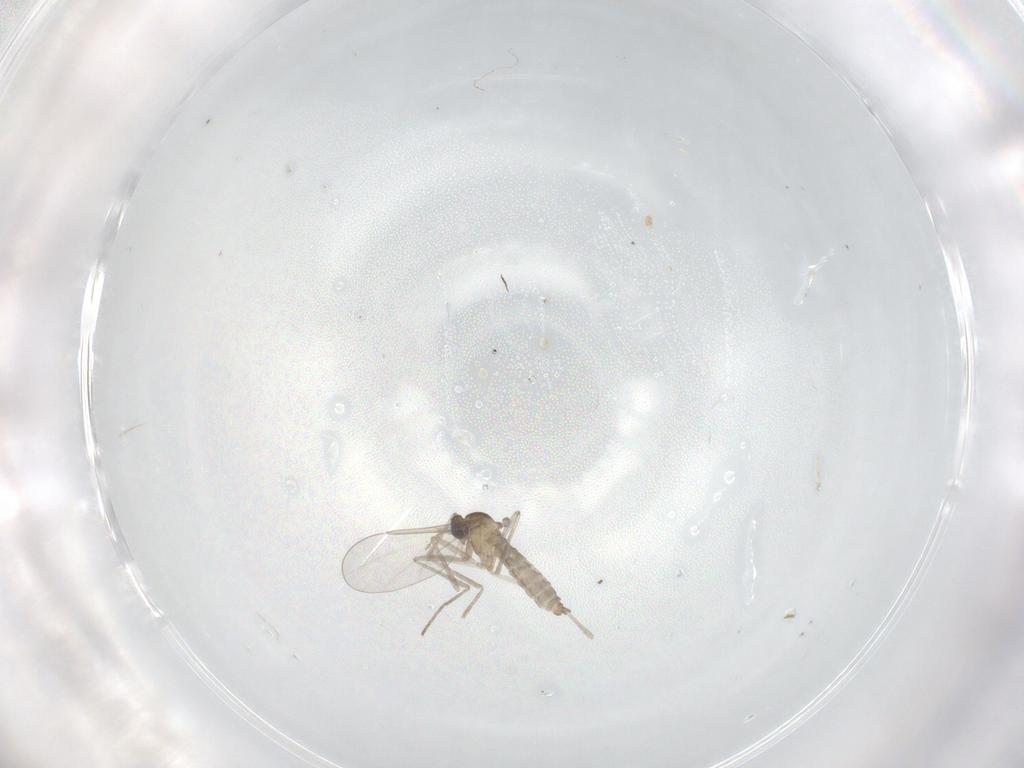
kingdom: Animalia
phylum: Arthropoda
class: Insecta
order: Diptera
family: Cecidomyiidae
